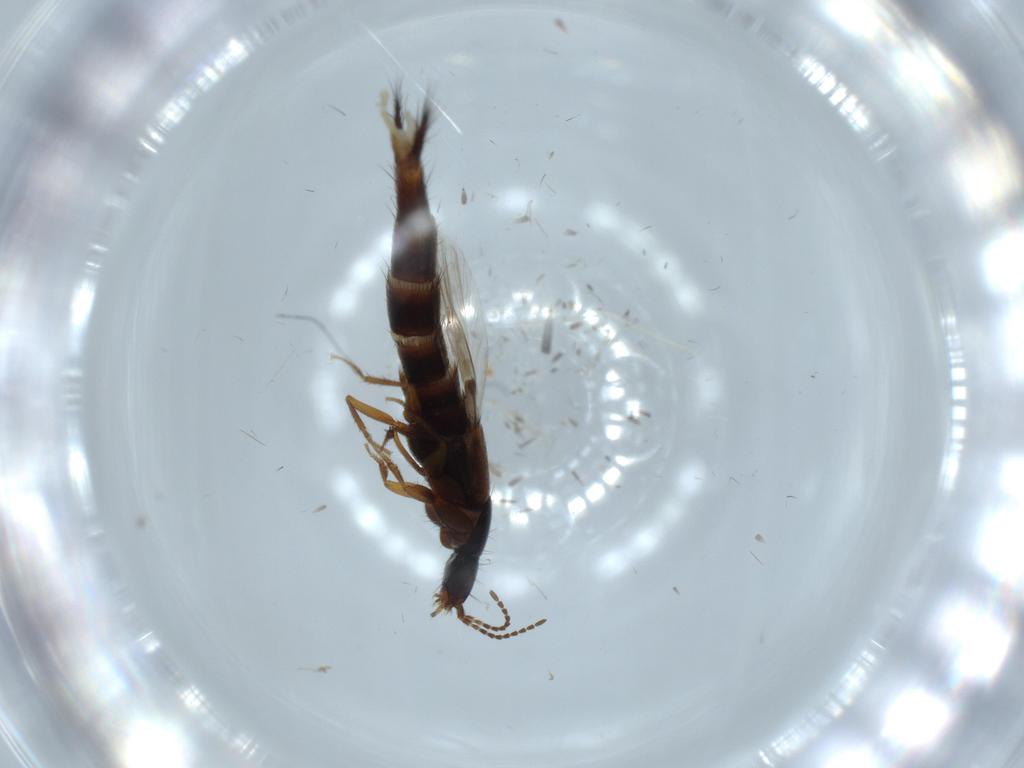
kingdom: Animalia
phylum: Arthropoda
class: Insecta
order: Coleoptera
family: Staphylinidae
